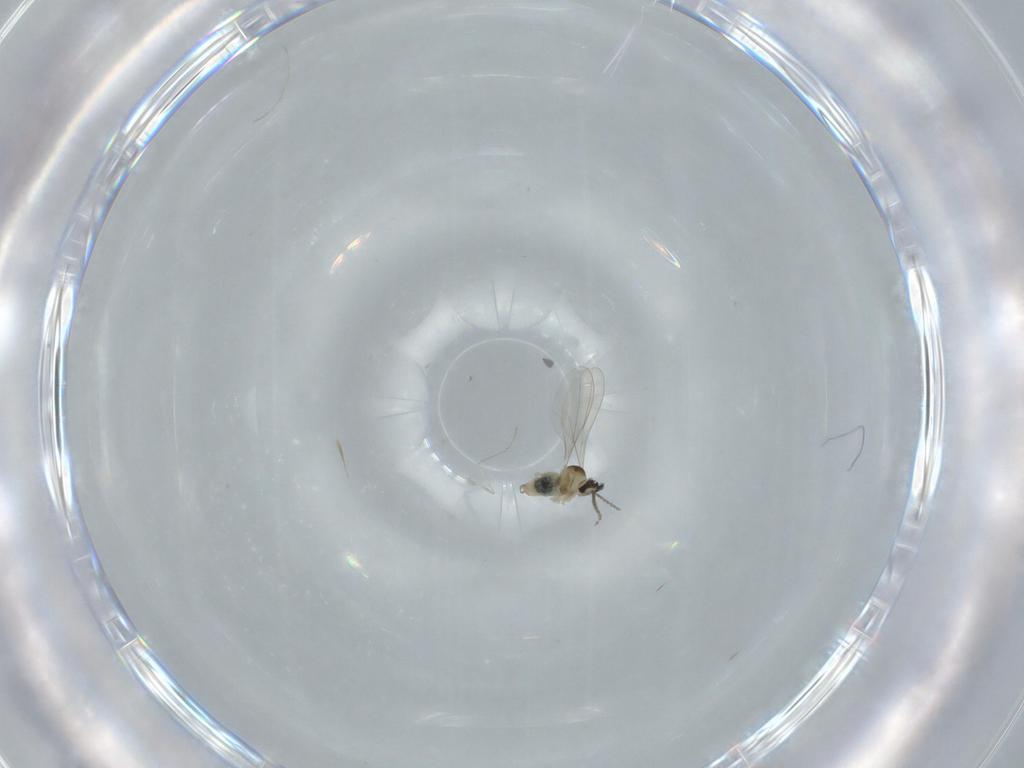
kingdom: Animalia
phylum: Arthropoda
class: Insecta
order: Diptera
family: Cecidomyiidae
